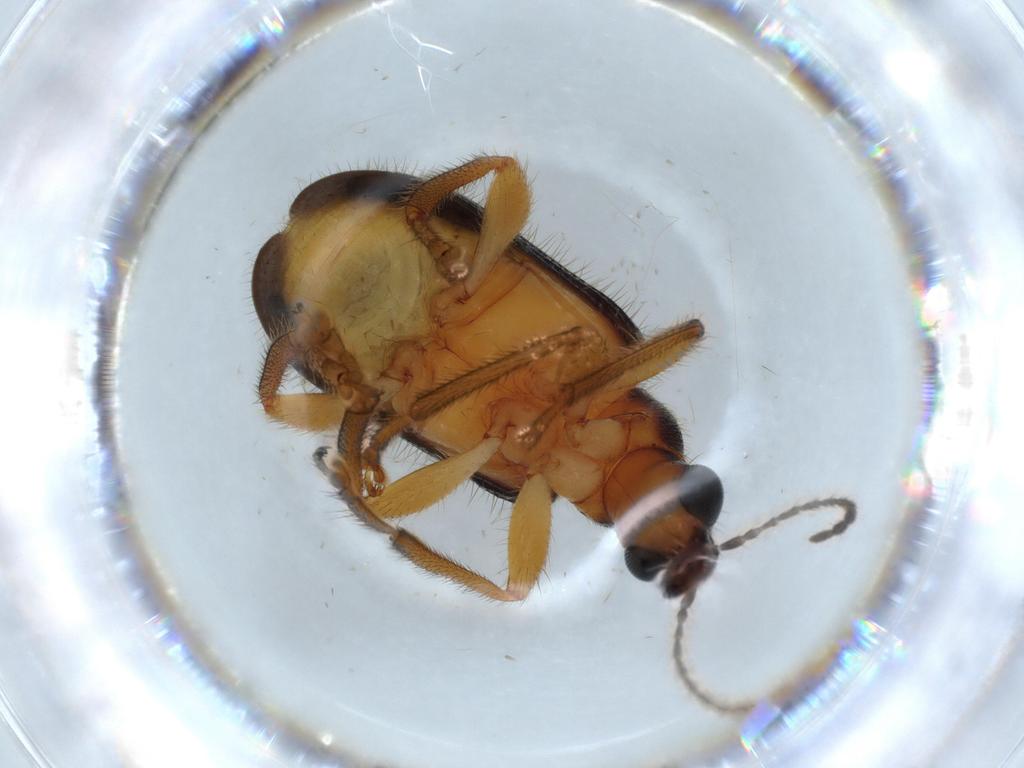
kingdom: Animalia
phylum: Arthropoda
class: Insecta
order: Coleoptera
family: Attelabidae
